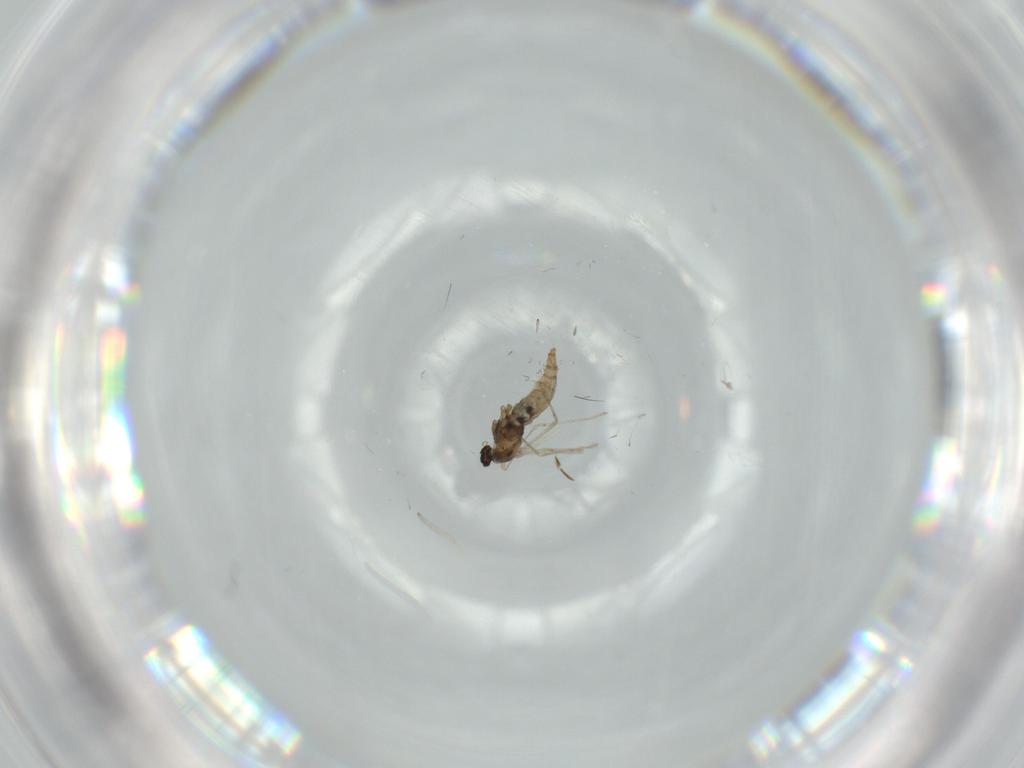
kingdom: Animalia
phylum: Arthropoda
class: Insecta
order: Diptera
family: Cecidomyiidae
